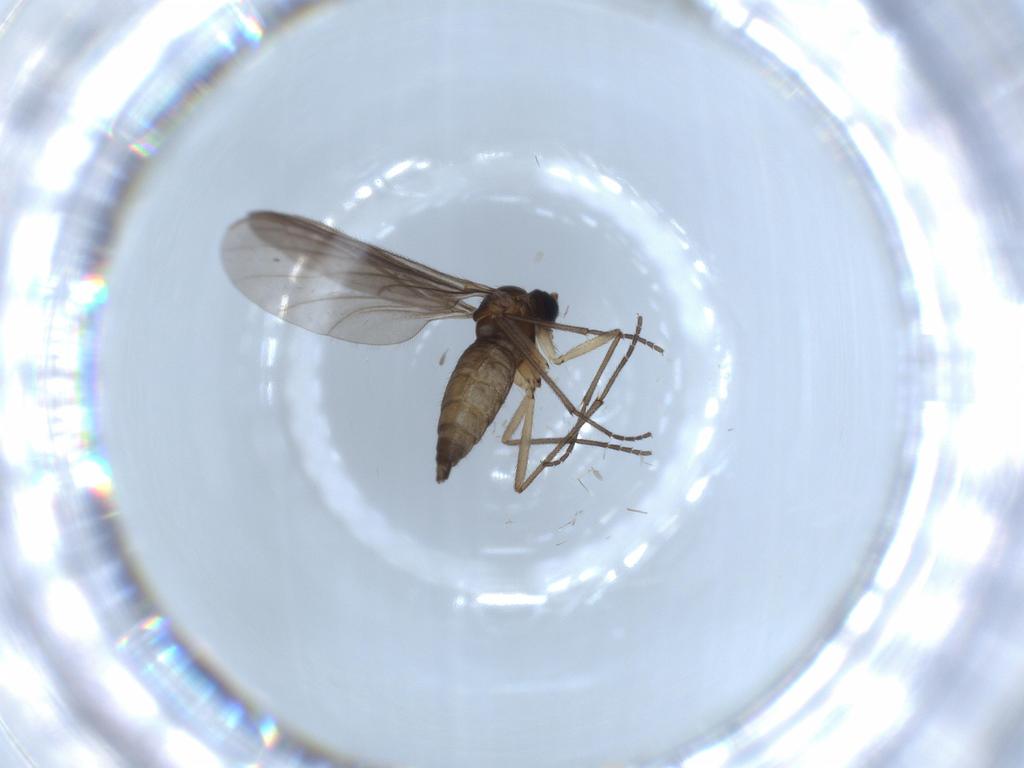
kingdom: Animalia
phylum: Arthropoda
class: Insecta
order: Diptera
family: Sciaridae
